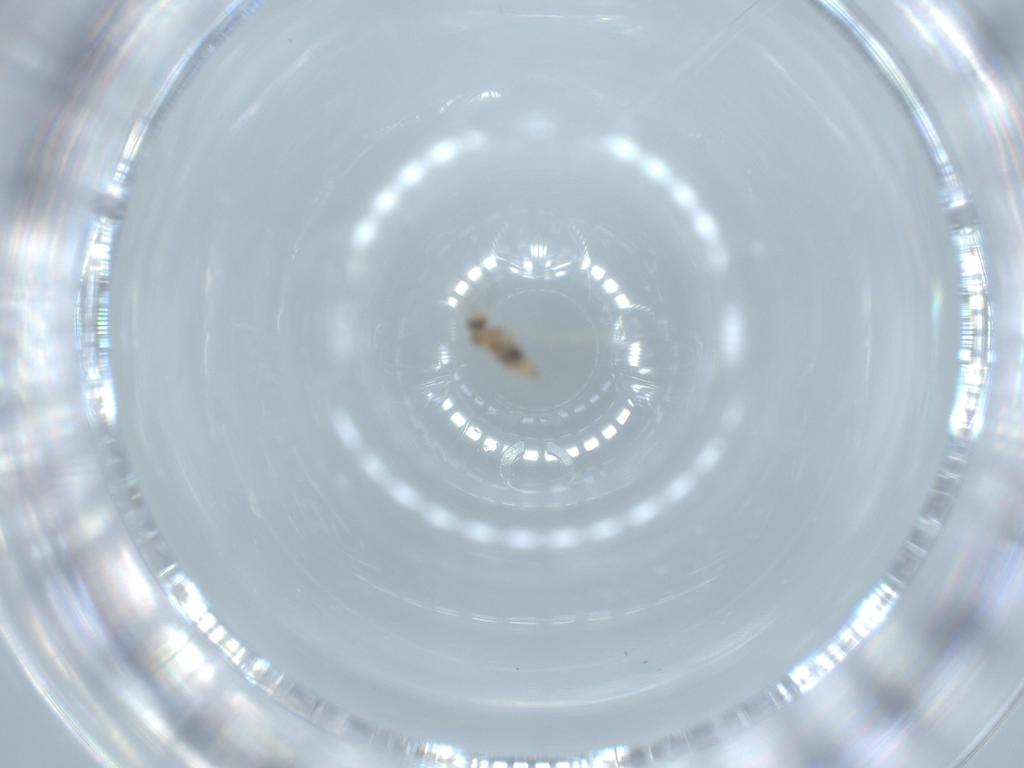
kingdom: Animalia
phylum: Arthropoda
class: Insecta
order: Diptera
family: Cecidomyiidae
